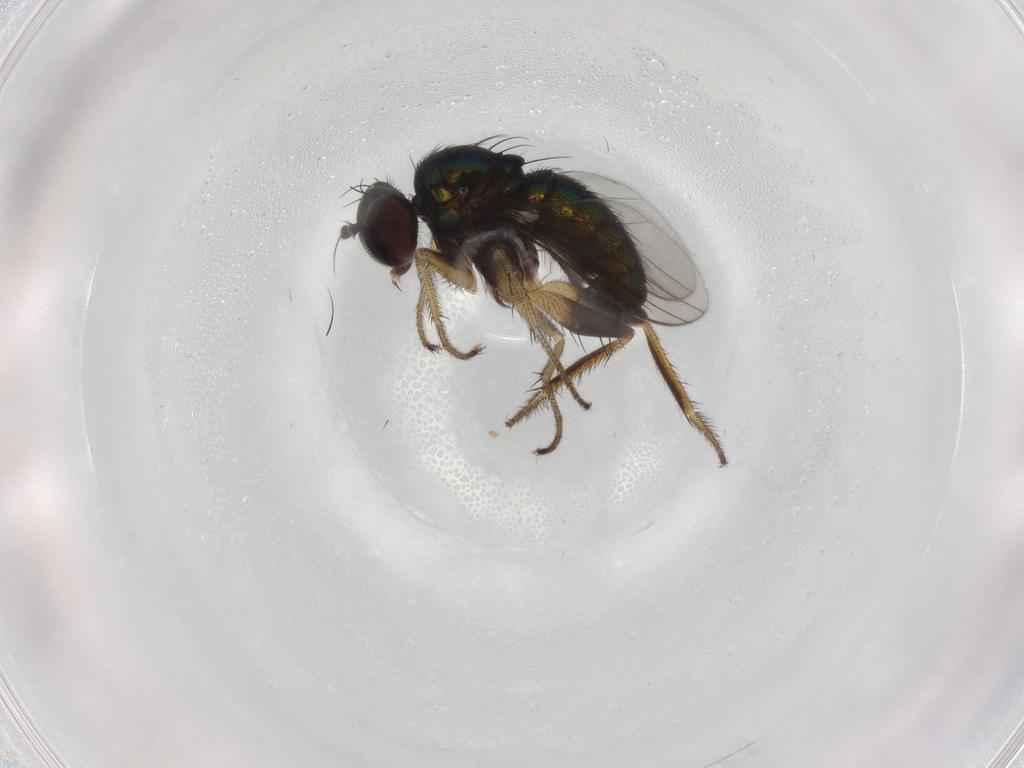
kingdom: Animalia
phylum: Arthropoda
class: Insecta
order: Diptera
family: Dolichopodidae
